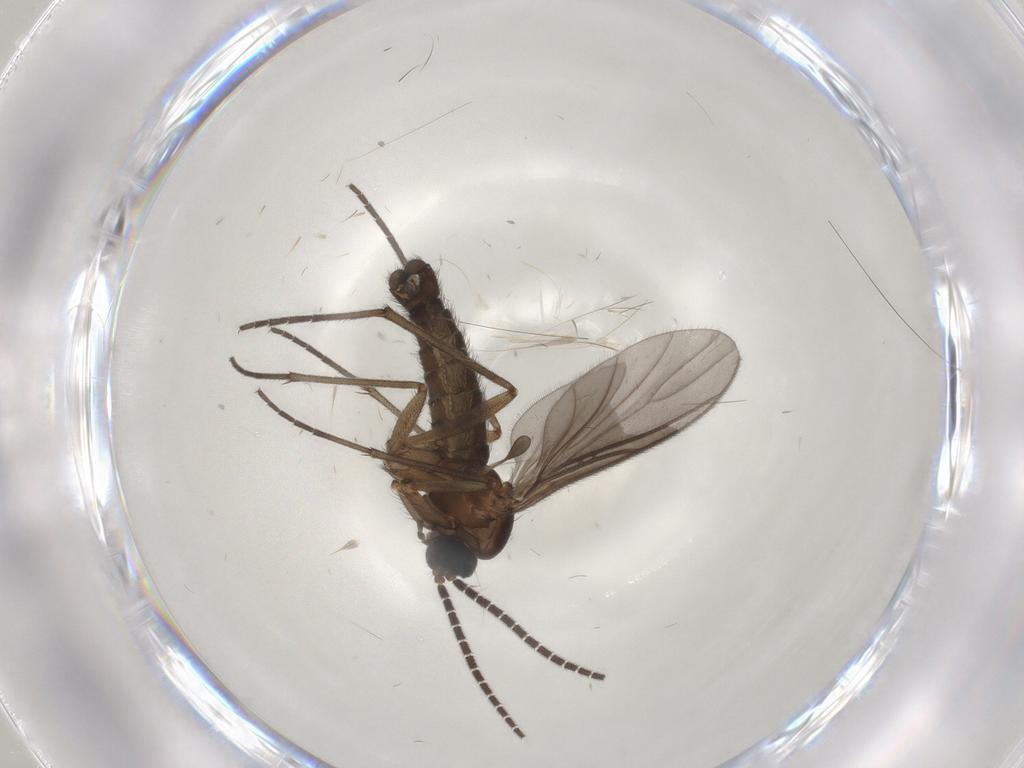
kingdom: Animalia
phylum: Arthropoda
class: Insecta
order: Diptera
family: Sciaridae
